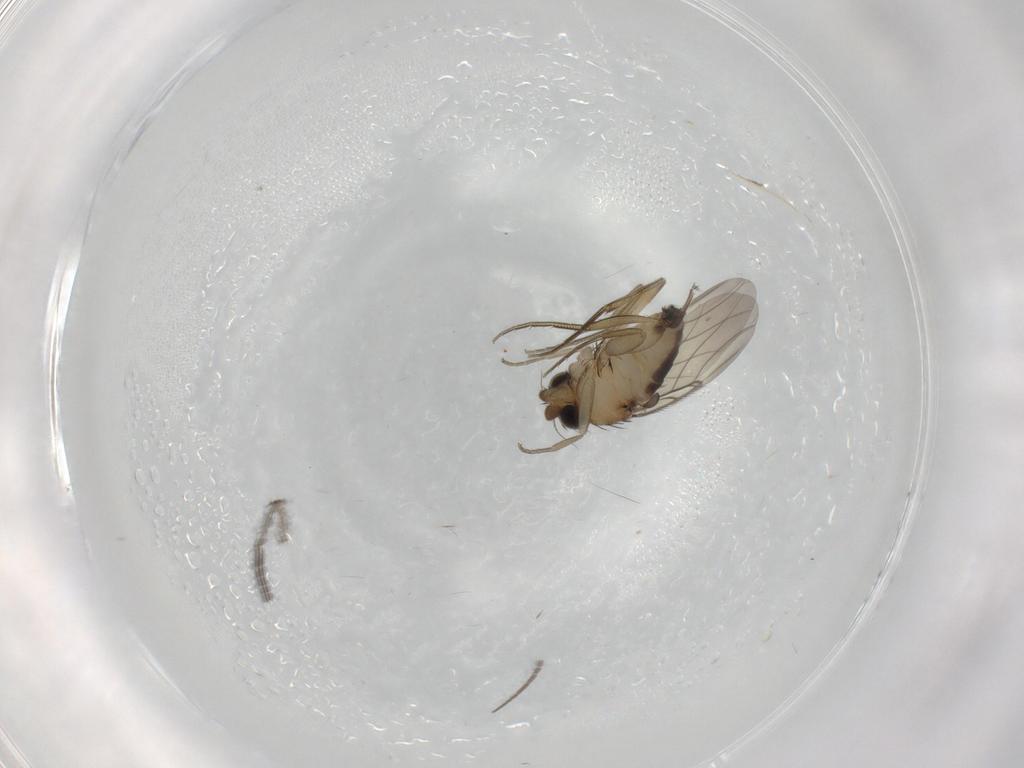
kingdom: Animalia
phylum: Arthropoda
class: Insecta
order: Diptera
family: Phoridae
